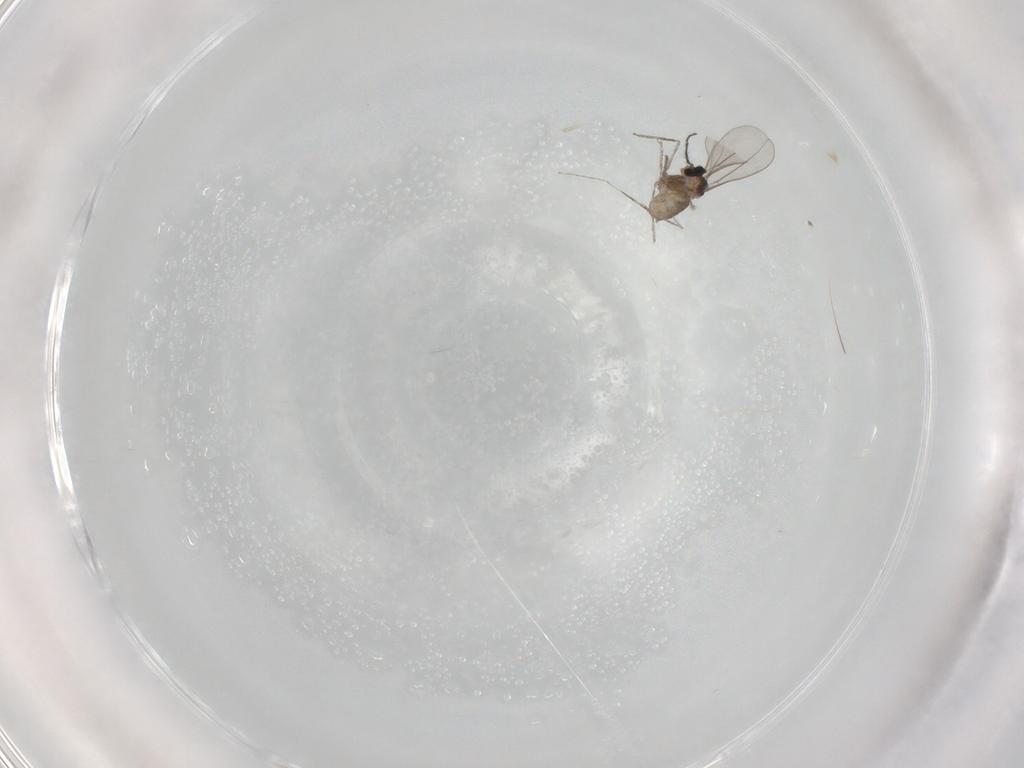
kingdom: Animalia
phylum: Arthropoda
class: Insecta
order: Diptera
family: Cecidomyiidae
